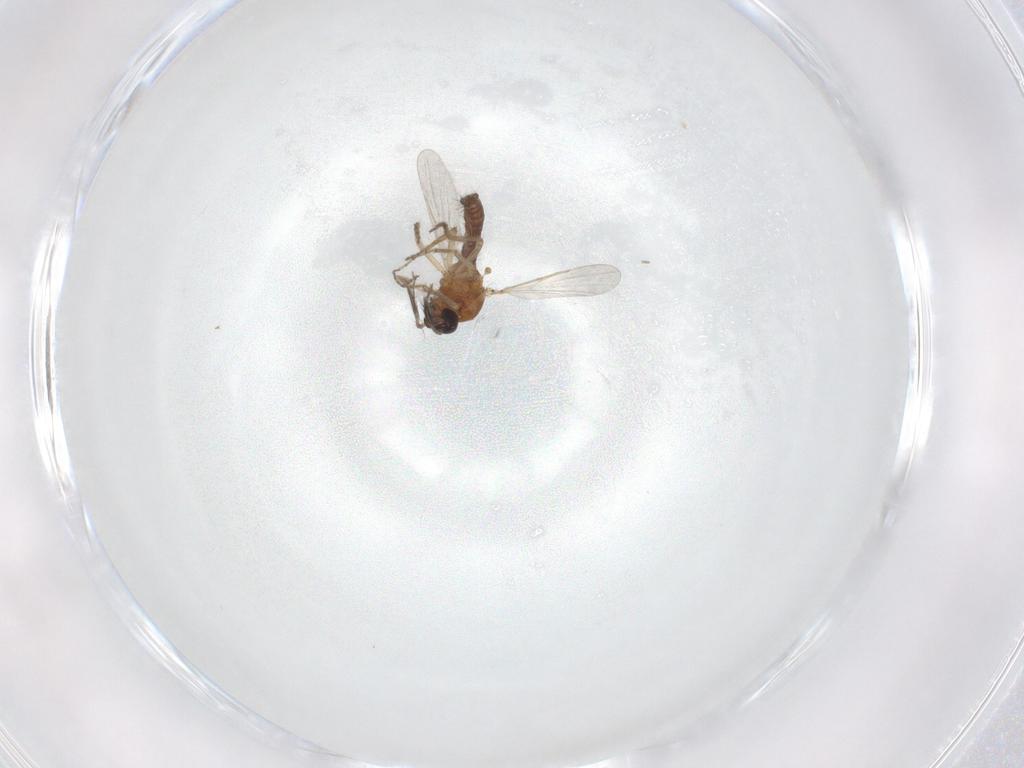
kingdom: Animalia
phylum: Arthropoda
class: Insecta
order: Diptera
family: Ceratopogonidae
